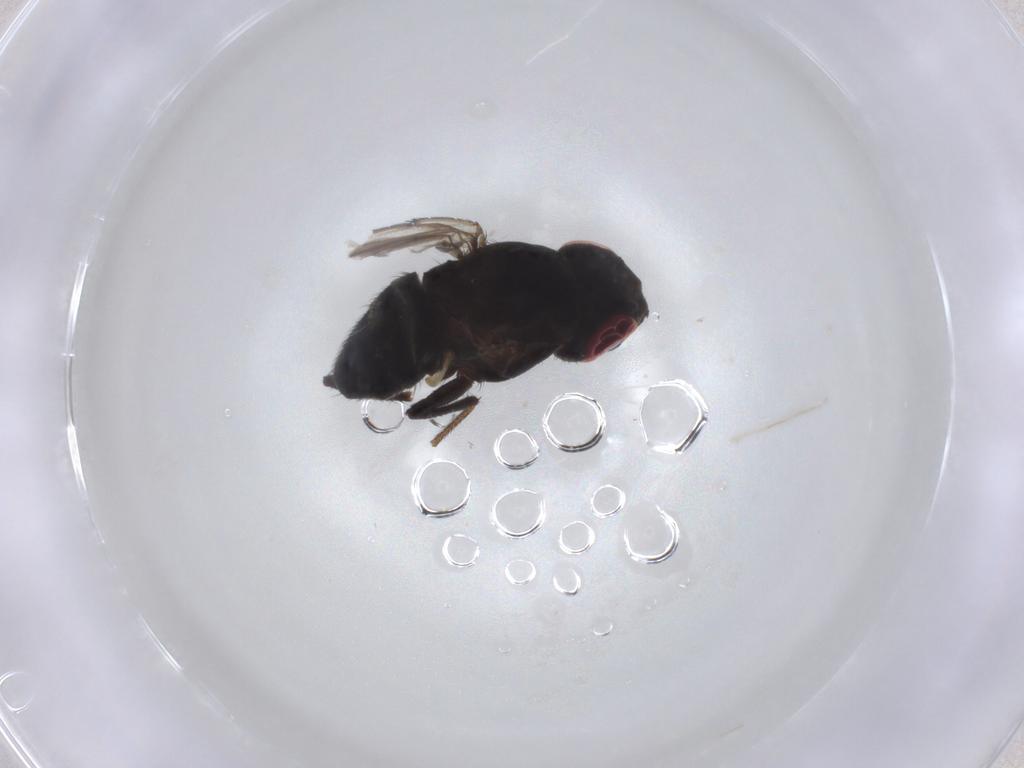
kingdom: Animalia
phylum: Arthropoda
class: Insecta
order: Diptera
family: Ephydridae
